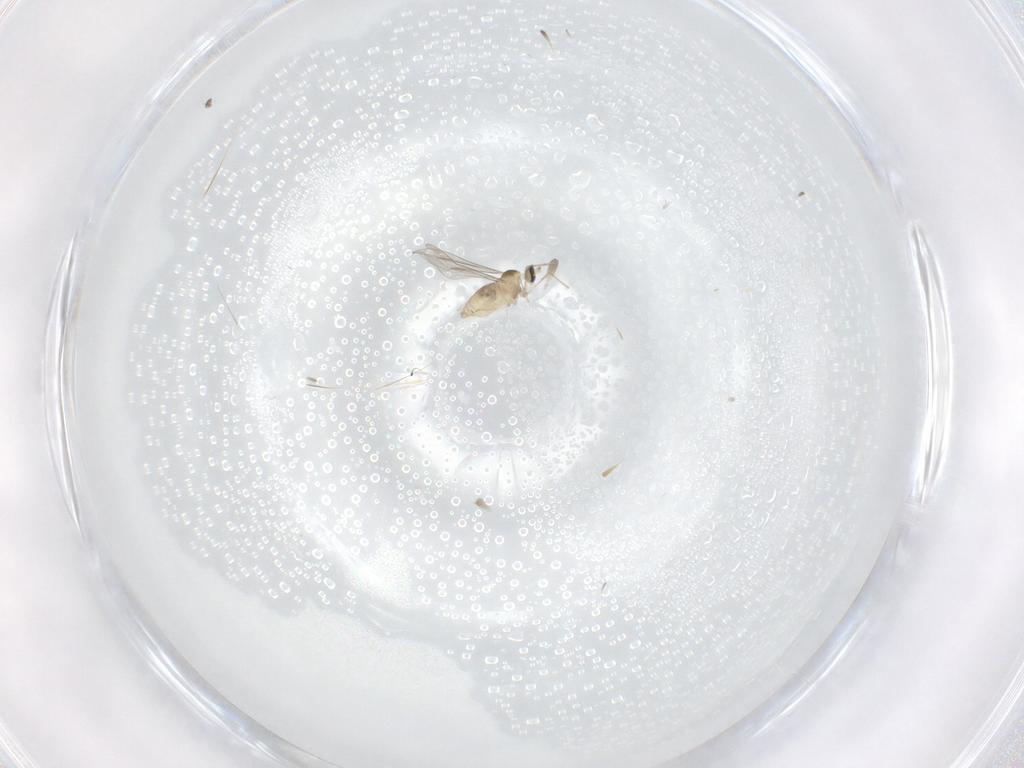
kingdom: Animalia
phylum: Arthropoda
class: Insecta
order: Diptera
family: Cecidomyiidae
